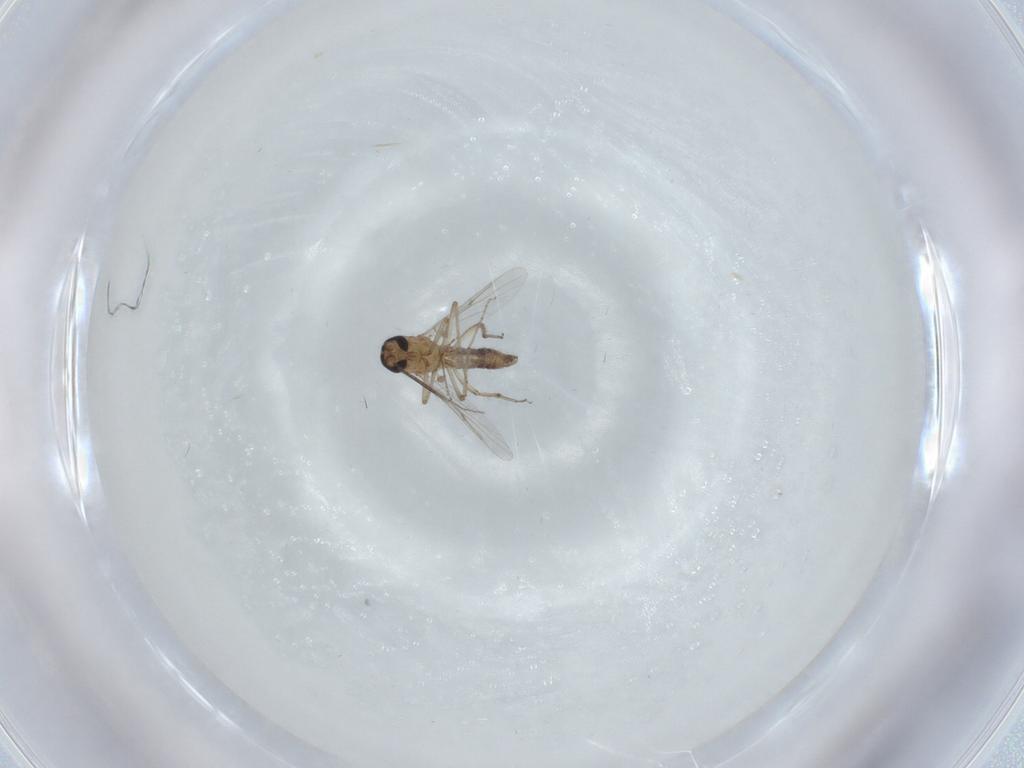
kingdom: Animalia
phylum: Arthropoda
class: Insecta
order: Diptera
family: Ceratopogonidae
